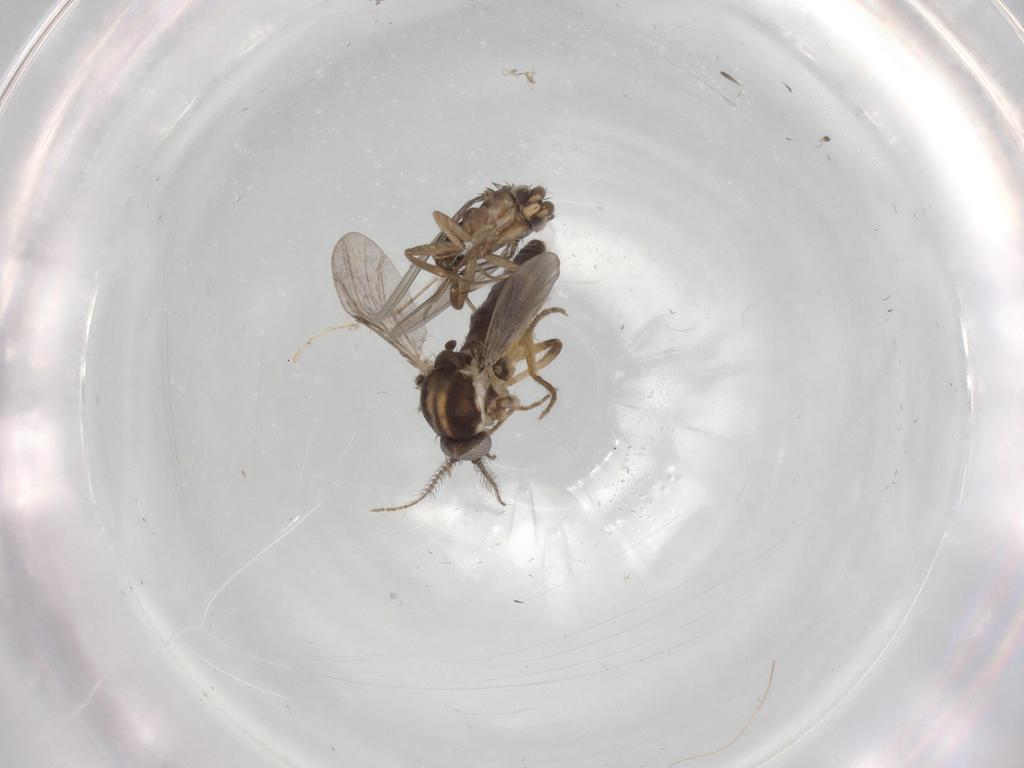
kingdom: Animalia
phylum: Arthropoda
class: Insecta
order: Diptera
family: Ceratopogonidae
